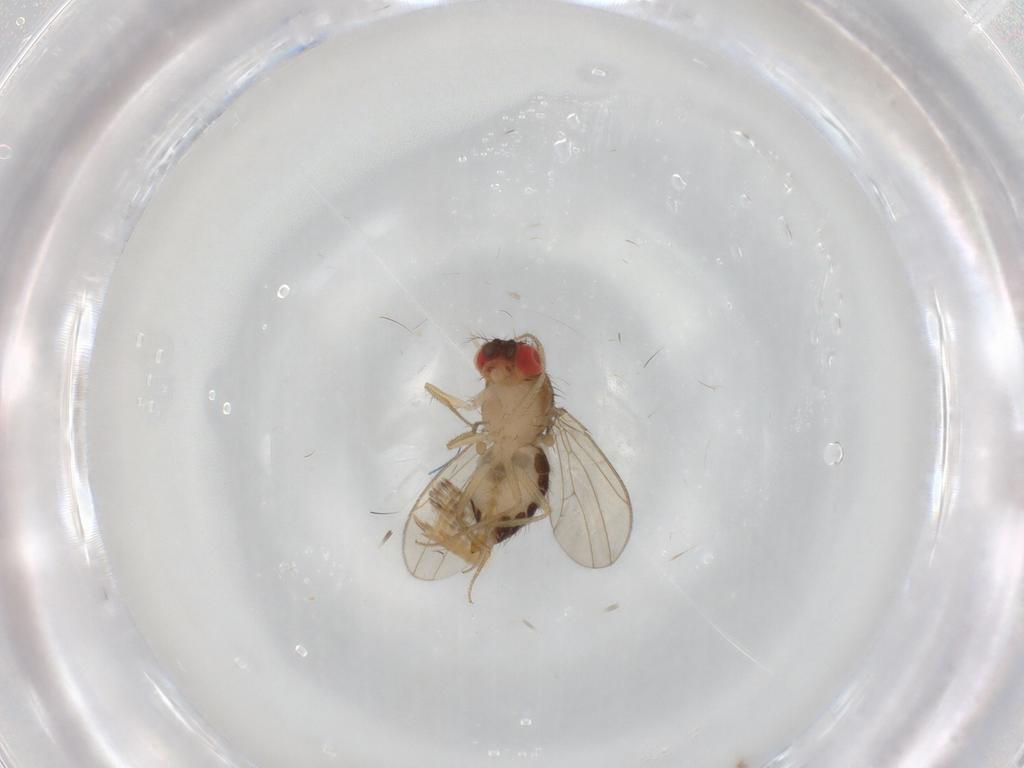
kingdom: Animalia
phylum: Arthropoda
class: Insecta
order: Diptera
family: Drosophilidae
